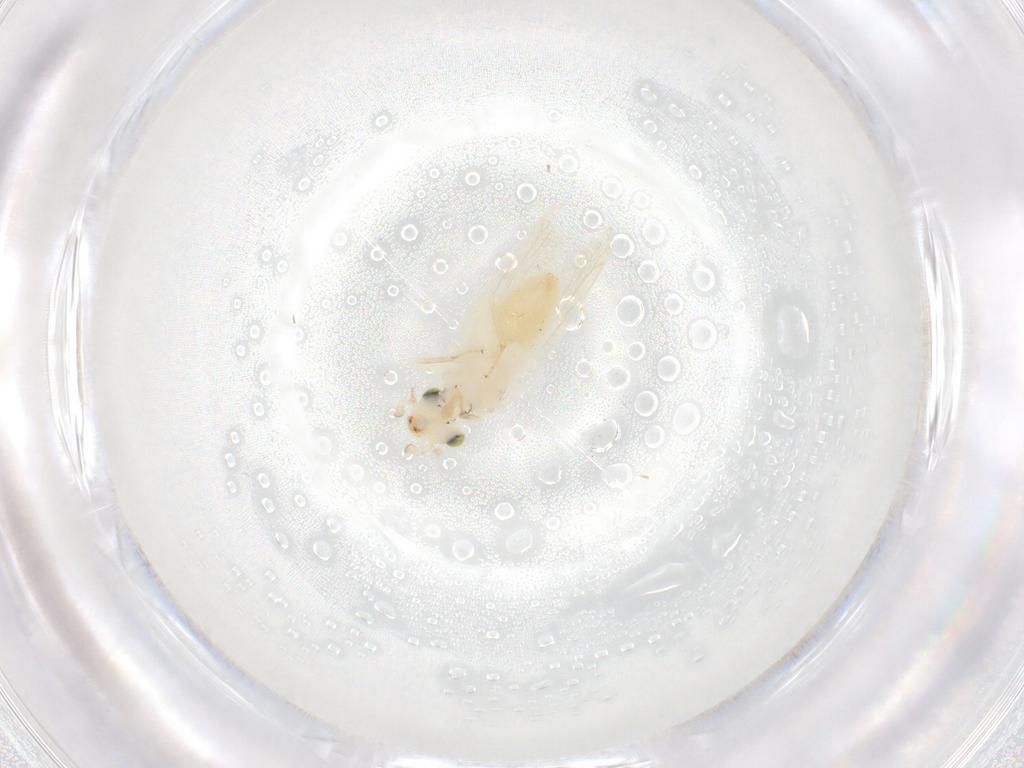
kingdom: Animalia
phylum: Arthropoda
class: Insecta
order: Psocodea
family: Lepidopsocidae
